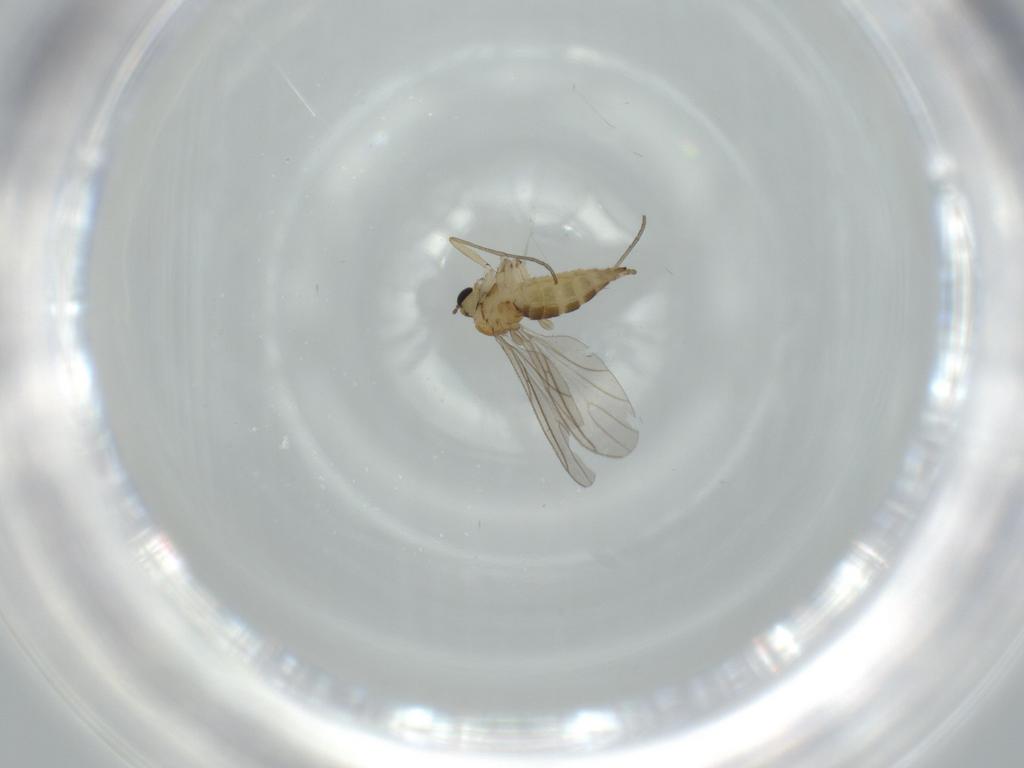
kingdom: Animalia
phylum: Arthropoda
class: Insecta
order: Diptera
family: Sciaridae
